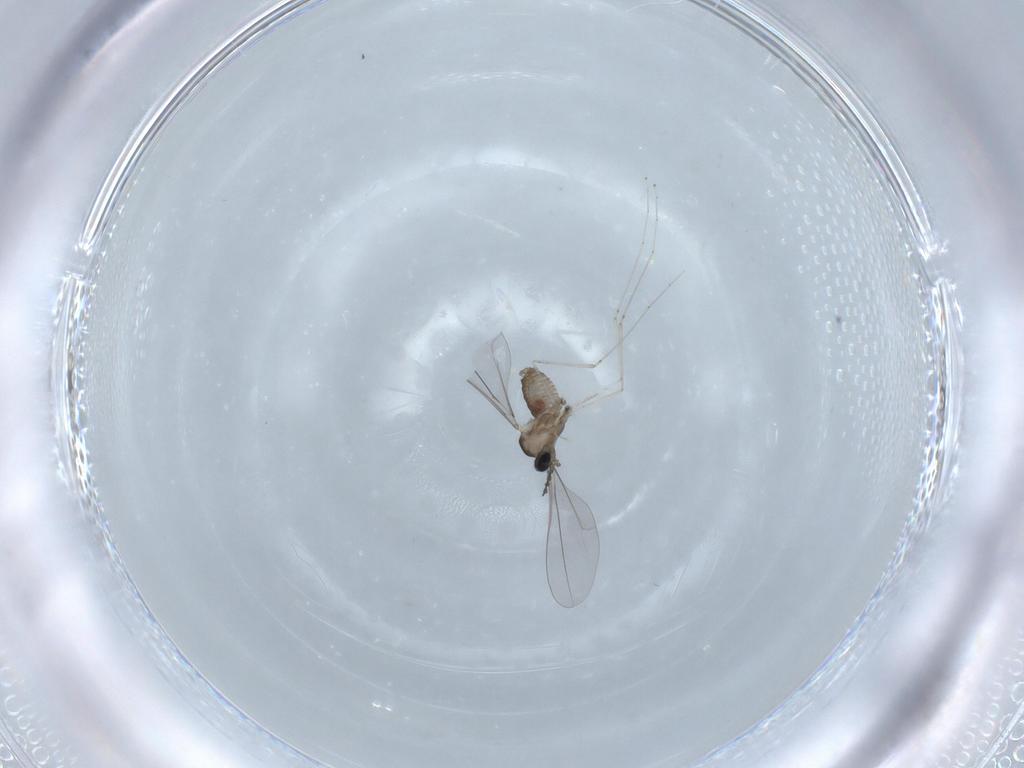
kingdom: Animalia
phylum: Arthropoda
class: Insecta
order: Diptera
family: Cecidomyiidae
